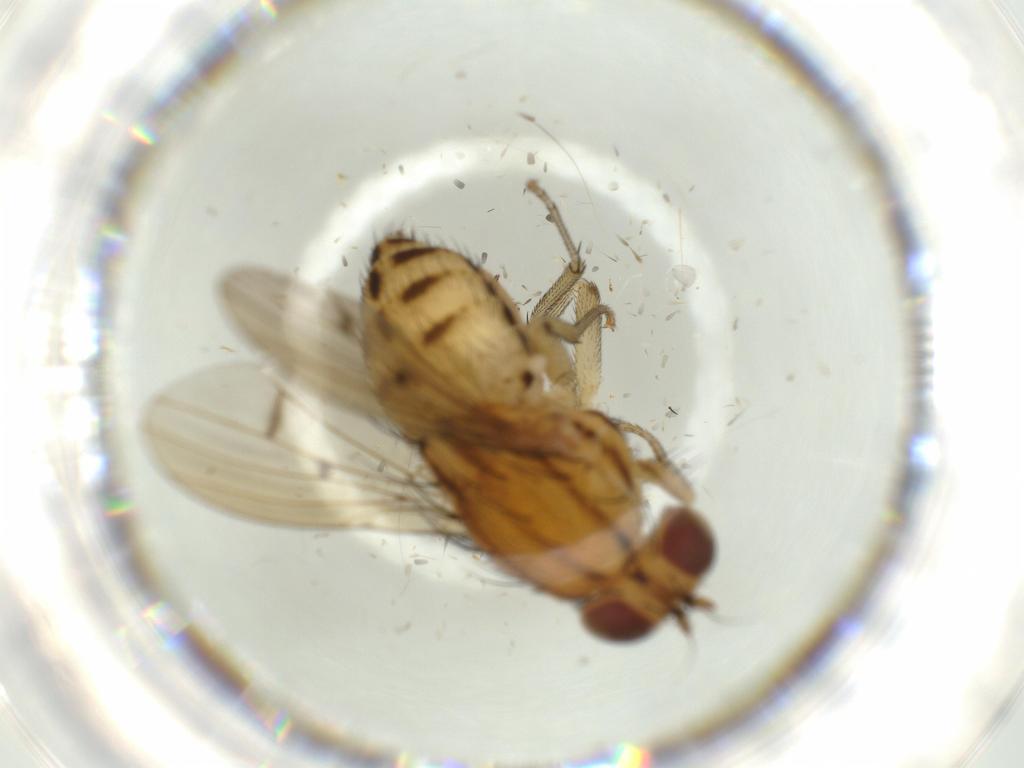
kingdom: Animalia
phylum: Arthropoda
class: Insecta
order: Diptera
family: Lauxaniidae
